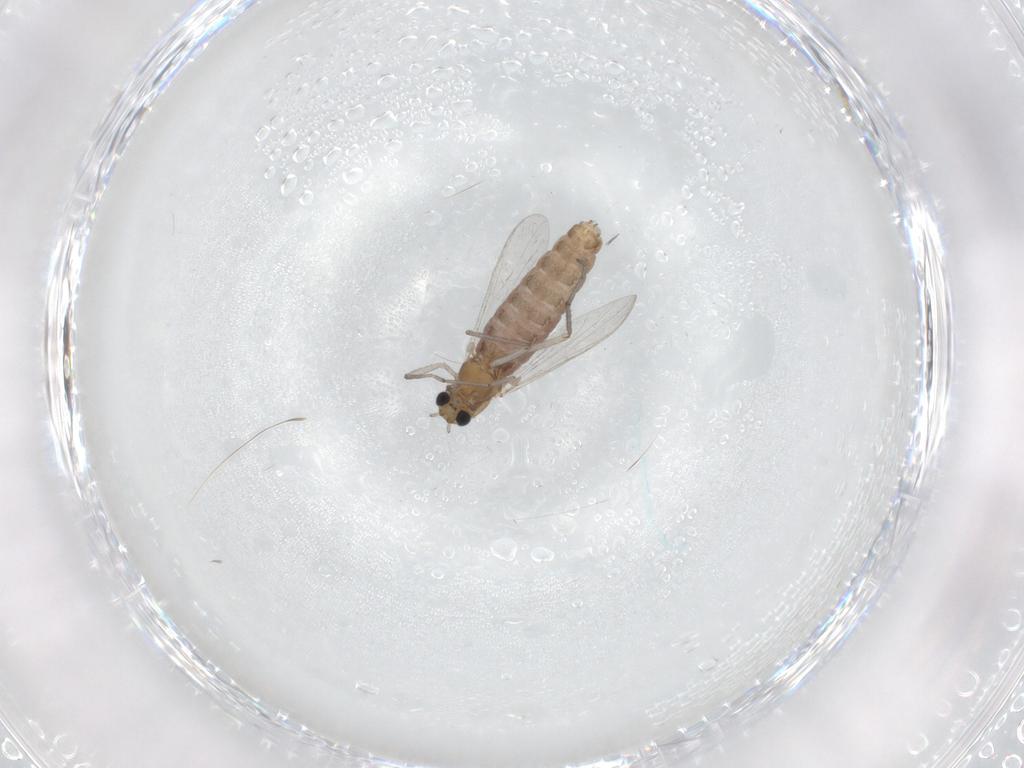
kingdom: Animalia
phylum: Arthropoda
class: Insecta
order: Diptera
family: Chironomidae
